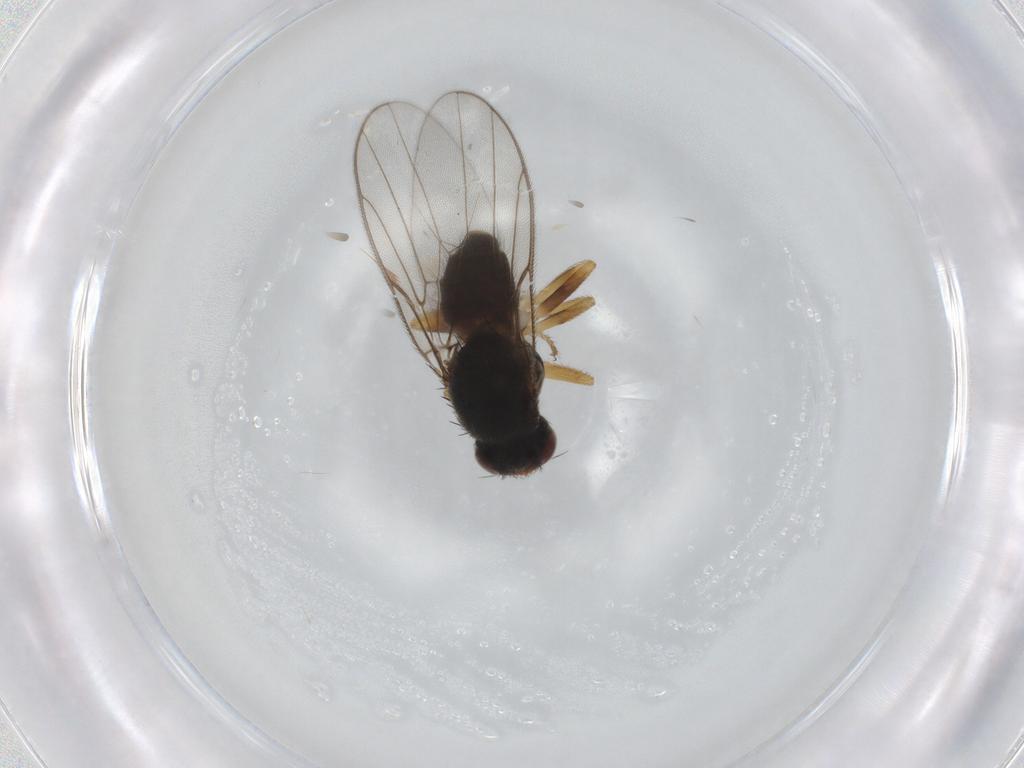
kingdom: Animalia
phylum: Arthropoda
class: Insecta
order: Diptera
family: Chloropidae
